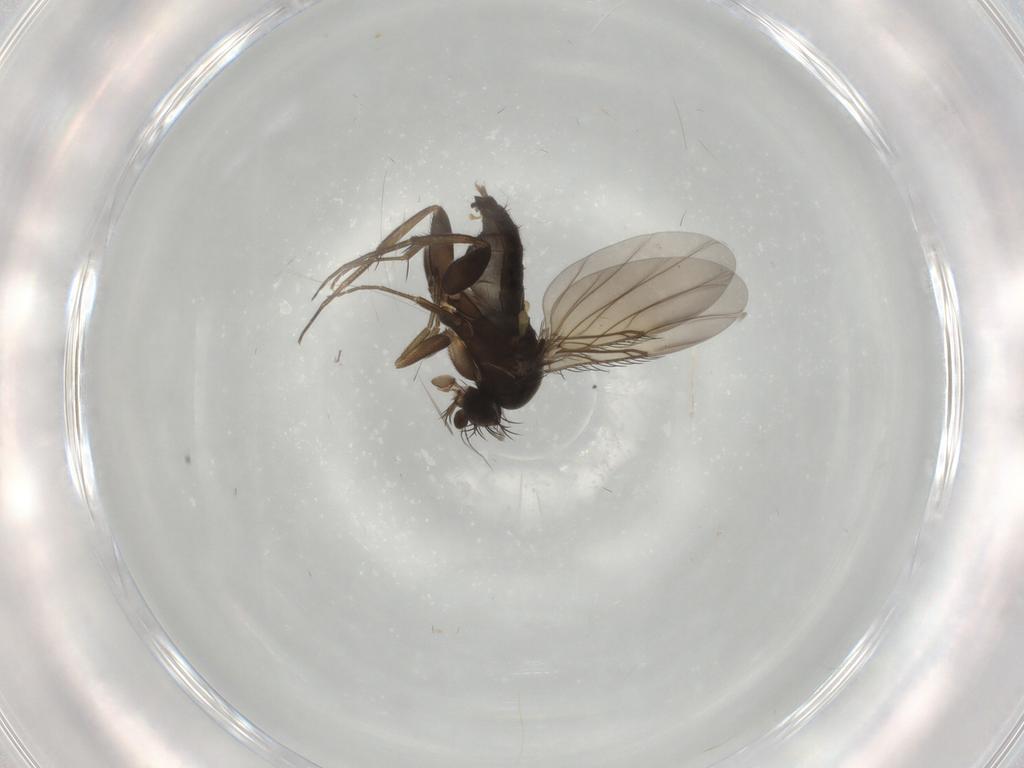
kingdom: Animalia
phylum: Arthropoda
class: Insecta
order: Diptera
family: Phoridae
